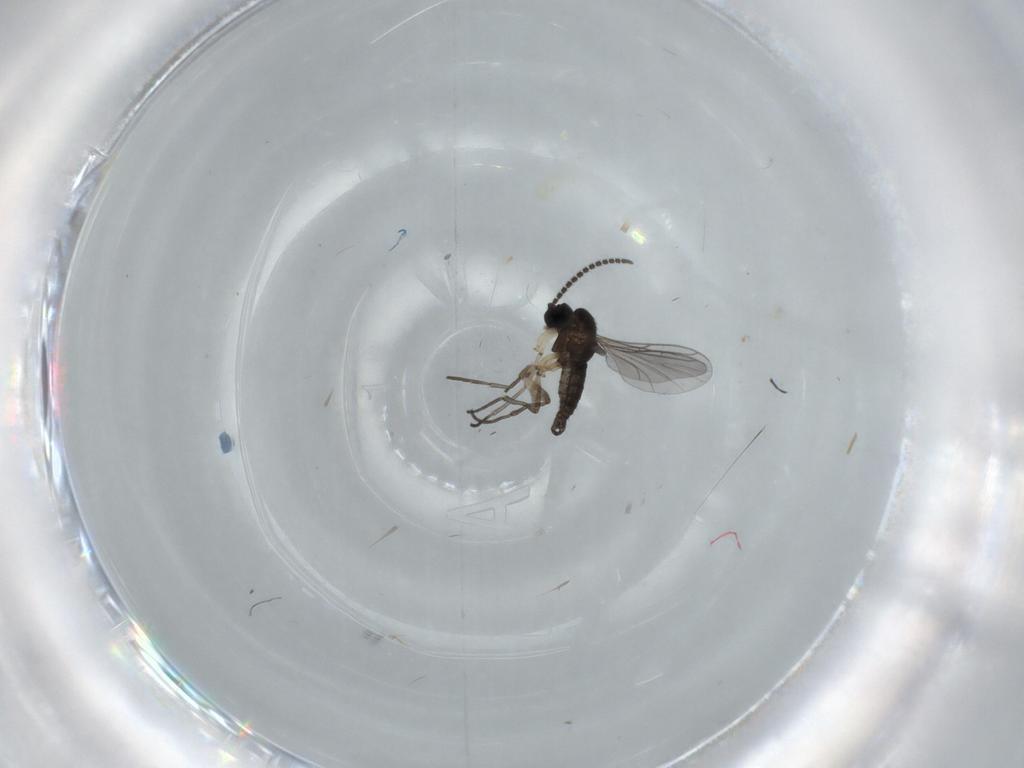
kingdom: Animalia
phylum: Arthropoda
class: Insecta
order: Diptera
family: Sciaridae
